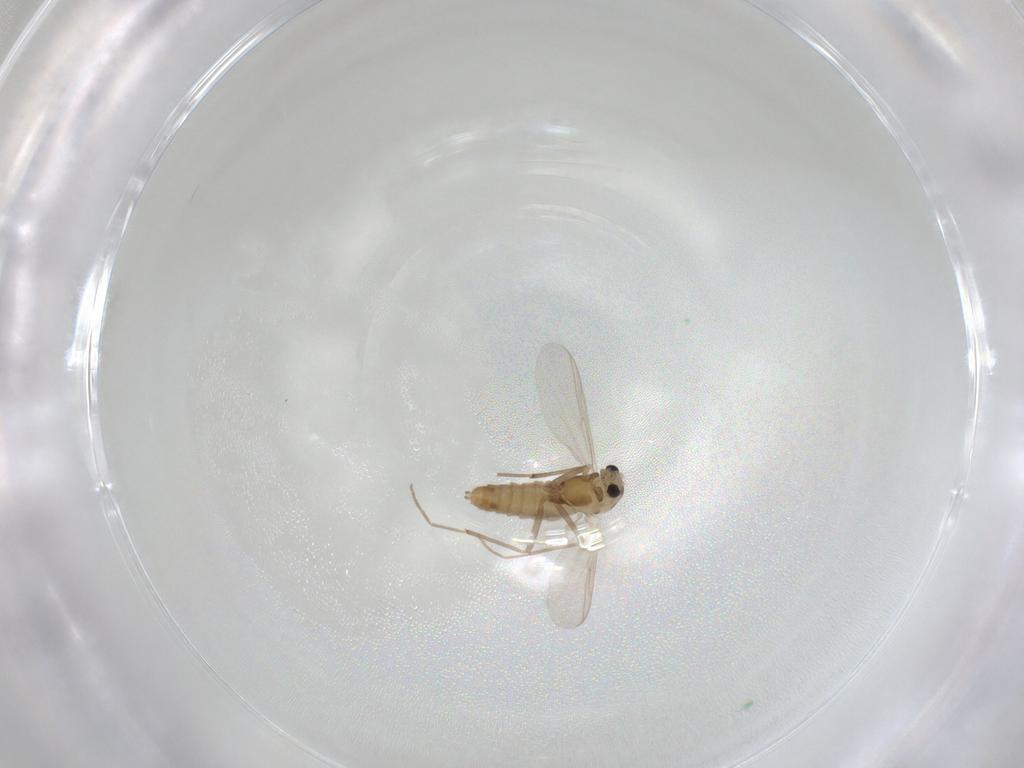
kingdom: Animalia
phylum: Arthropoda
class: Insecta
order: Diptera
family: Chironomidae
